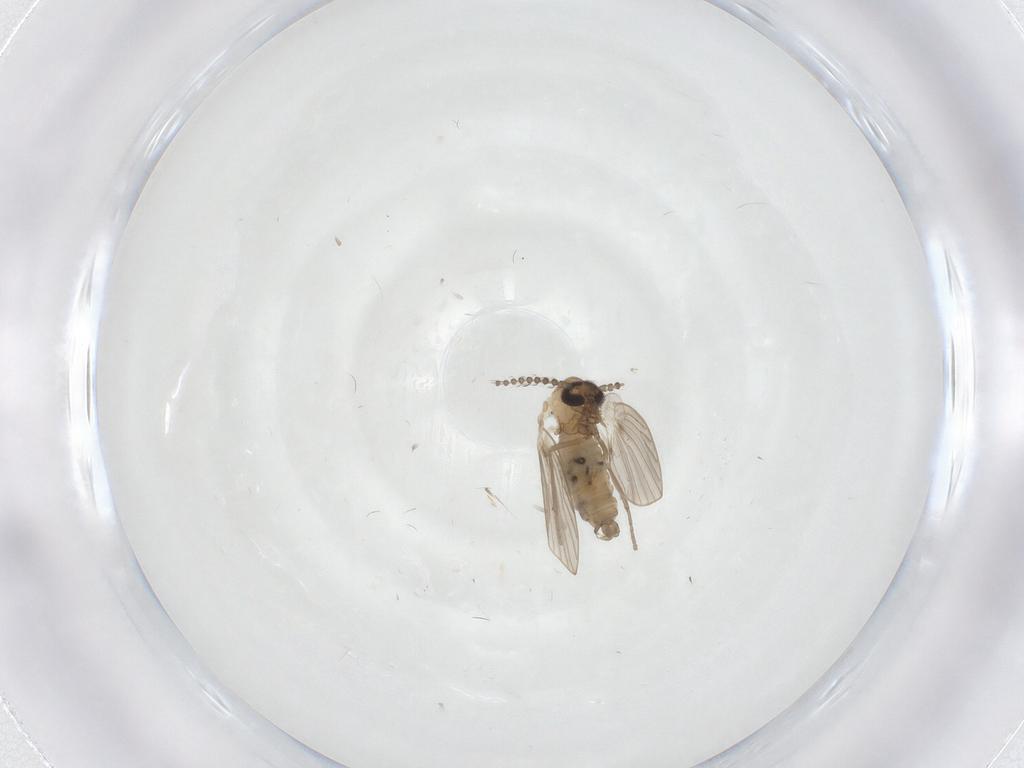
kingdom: Animalia
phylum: Arthropoda
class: Insecta
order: Diptera
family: Psychodidae
